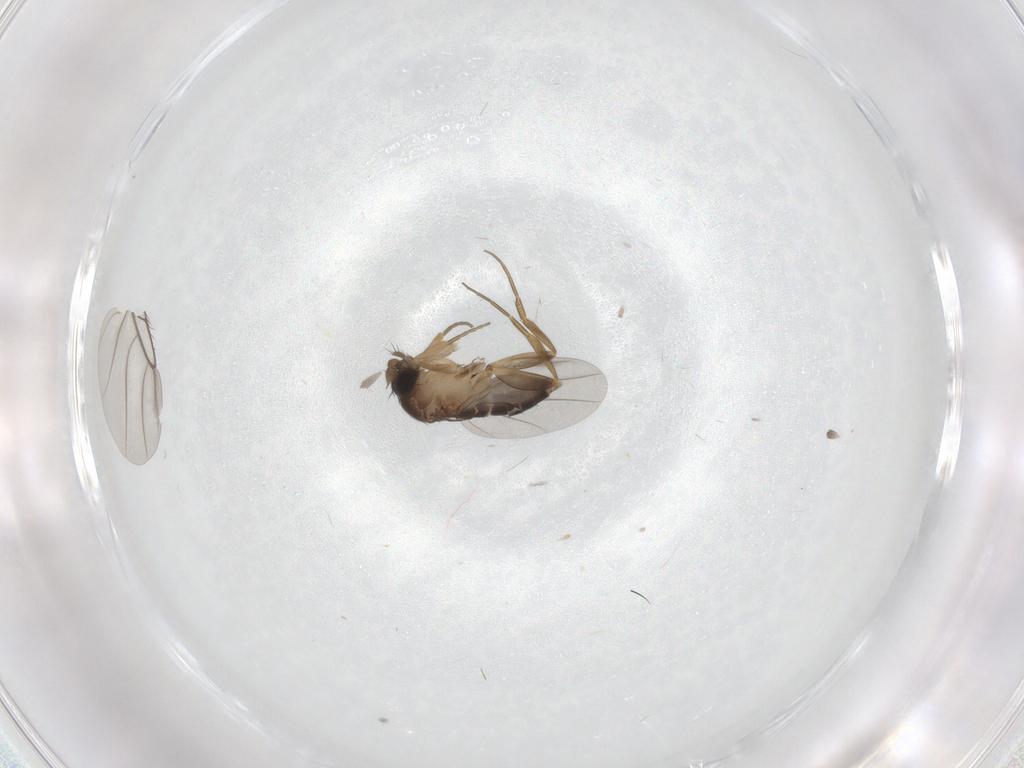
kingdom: Animalia
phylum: Arthropoda
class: Insecta
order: Diptera
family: Phoridae
